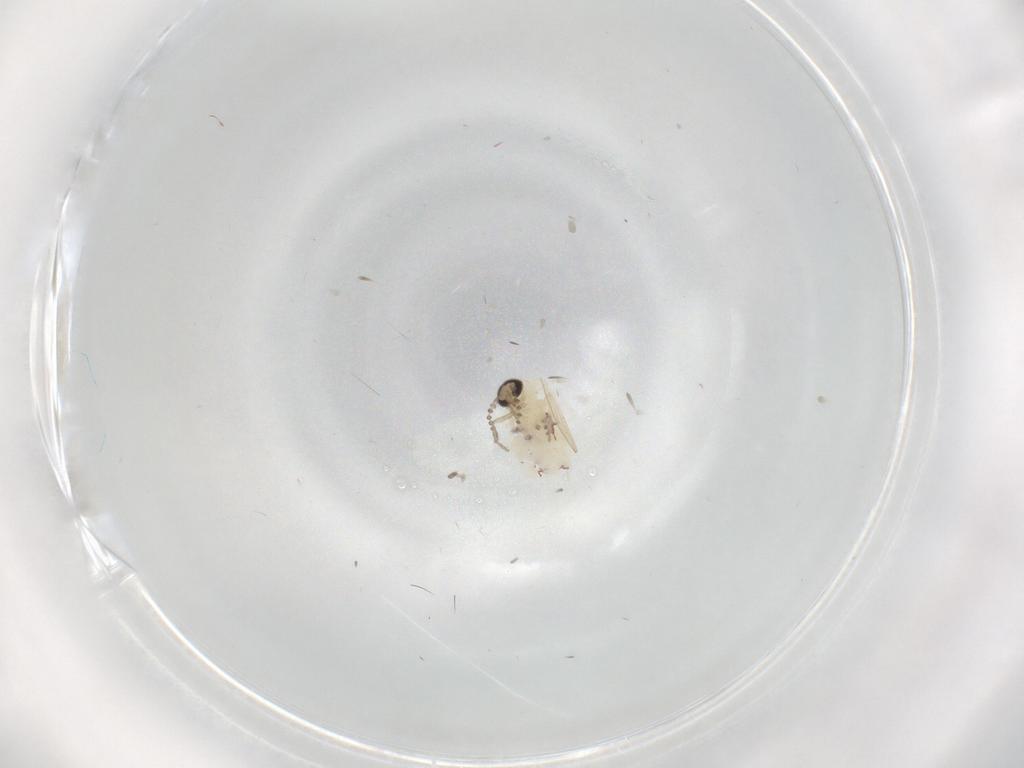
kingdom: Animalia
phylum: Arthropoda
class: Insecta
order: Diptera
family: Psychodidae
